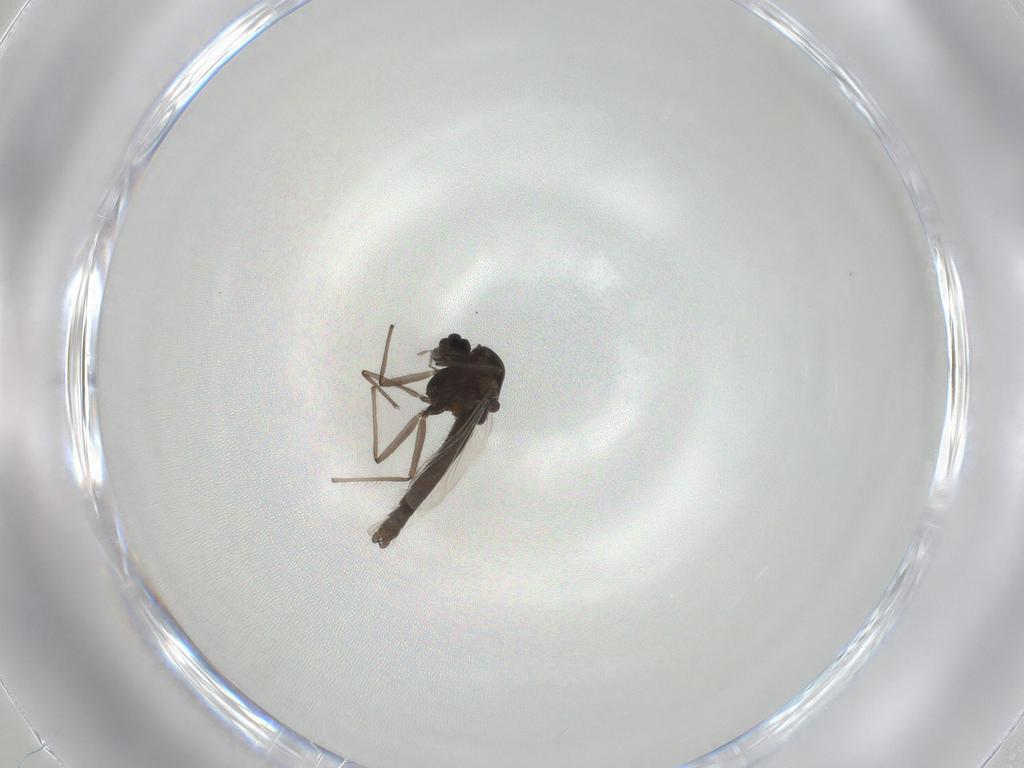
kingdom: Animalia
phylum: Arthropoda
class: Insecta
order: Diptera
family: Chironomidae
